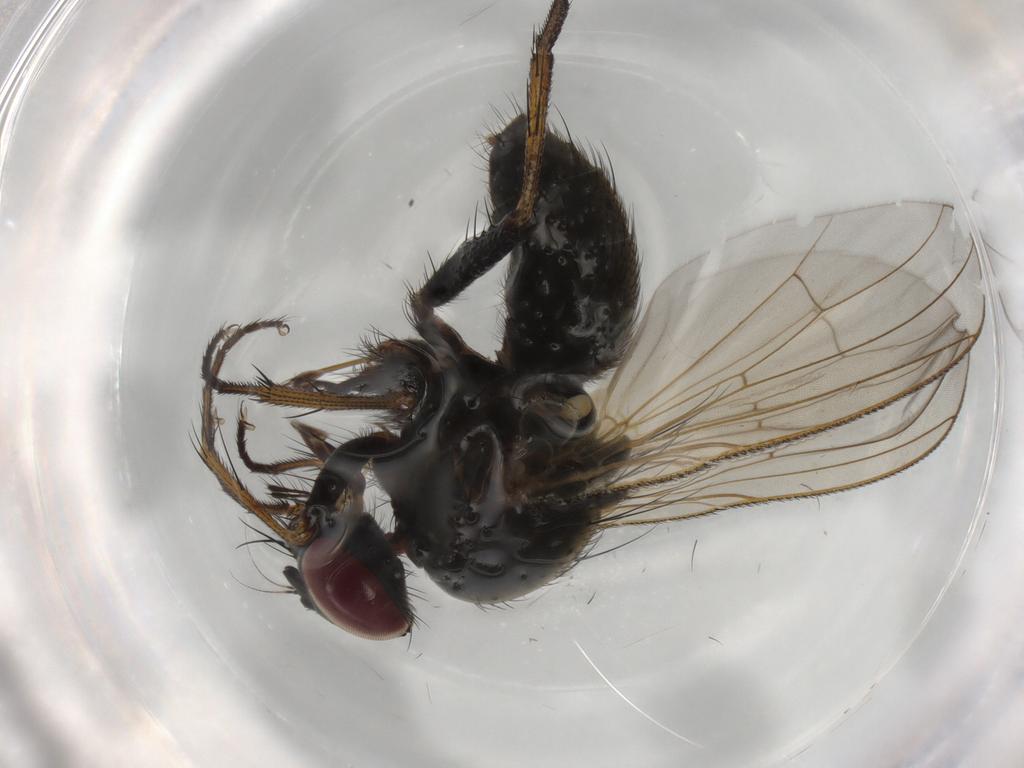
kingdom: Animalia
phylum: Arthropoda
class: Insecta
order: Diptera
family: Muscidae
